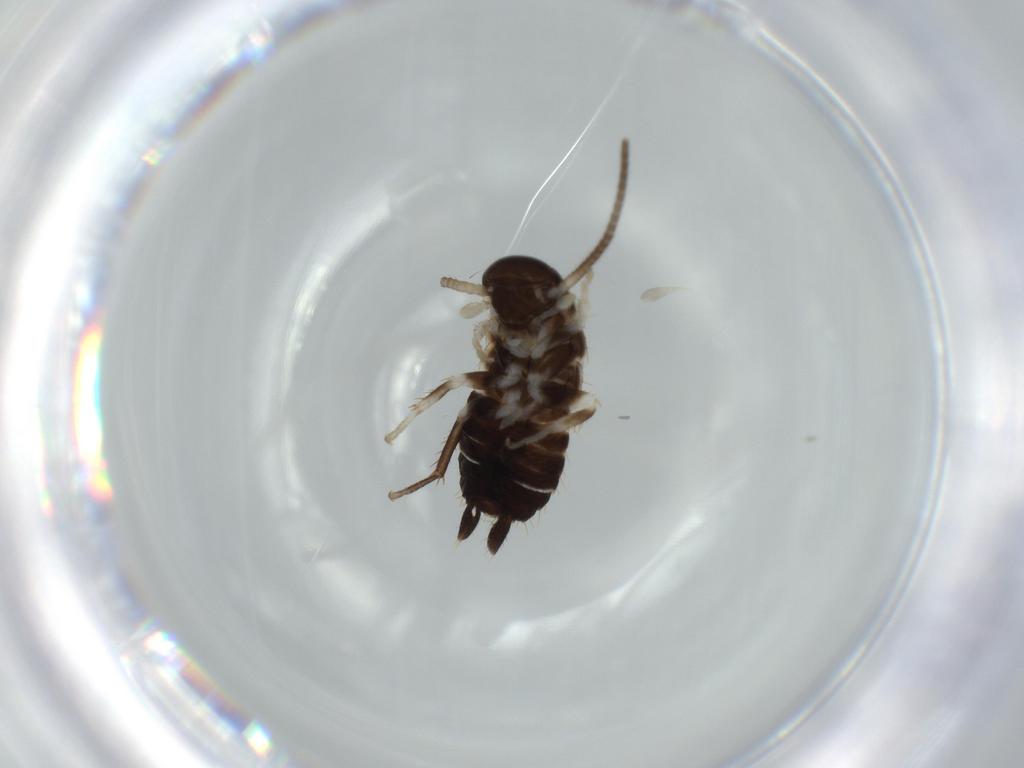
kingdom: Animalia
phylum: Arthropoda
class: Insecta
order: Blattodea
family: Ectobiidae
